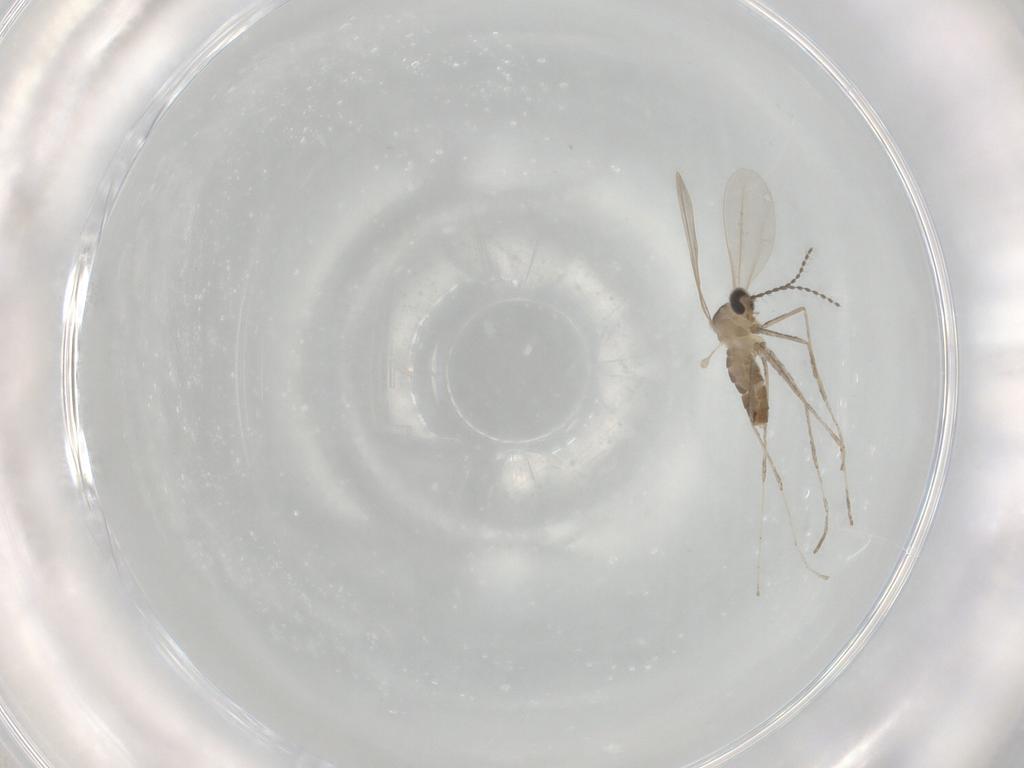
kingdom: Animalia
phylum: Arthropoda
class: Insecta
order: Diptera
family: Cecidomyiidae
